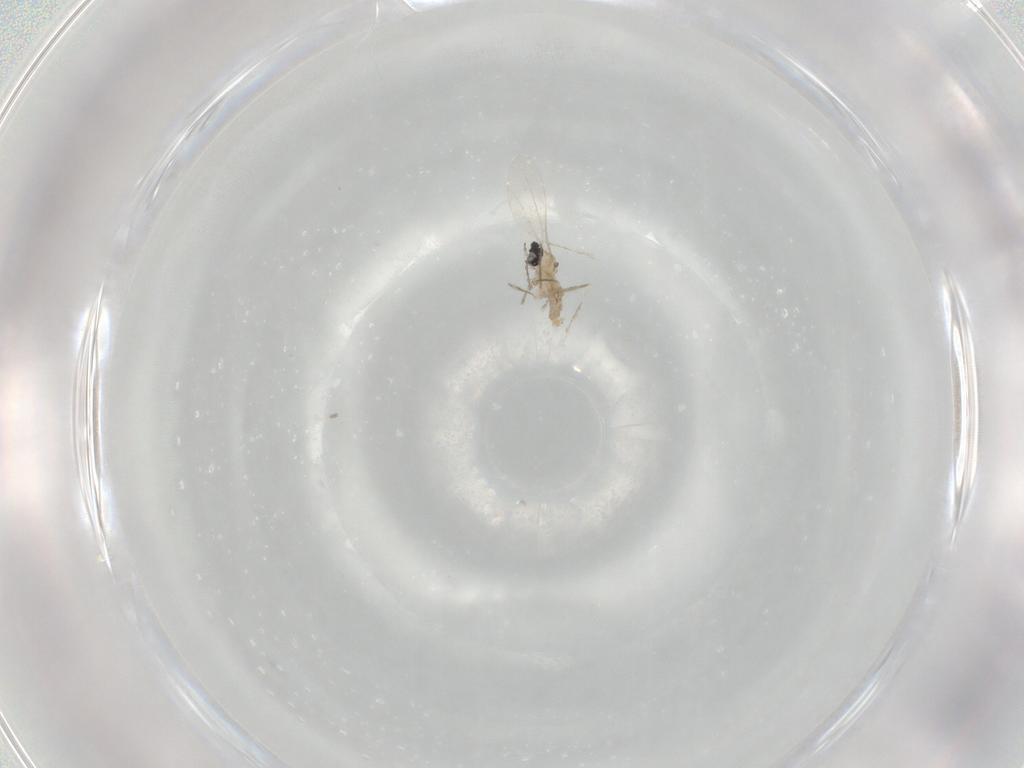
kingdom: Animalia
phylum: Arthropoda
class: Insecta
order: Diptera
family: Cecidomyiidae
